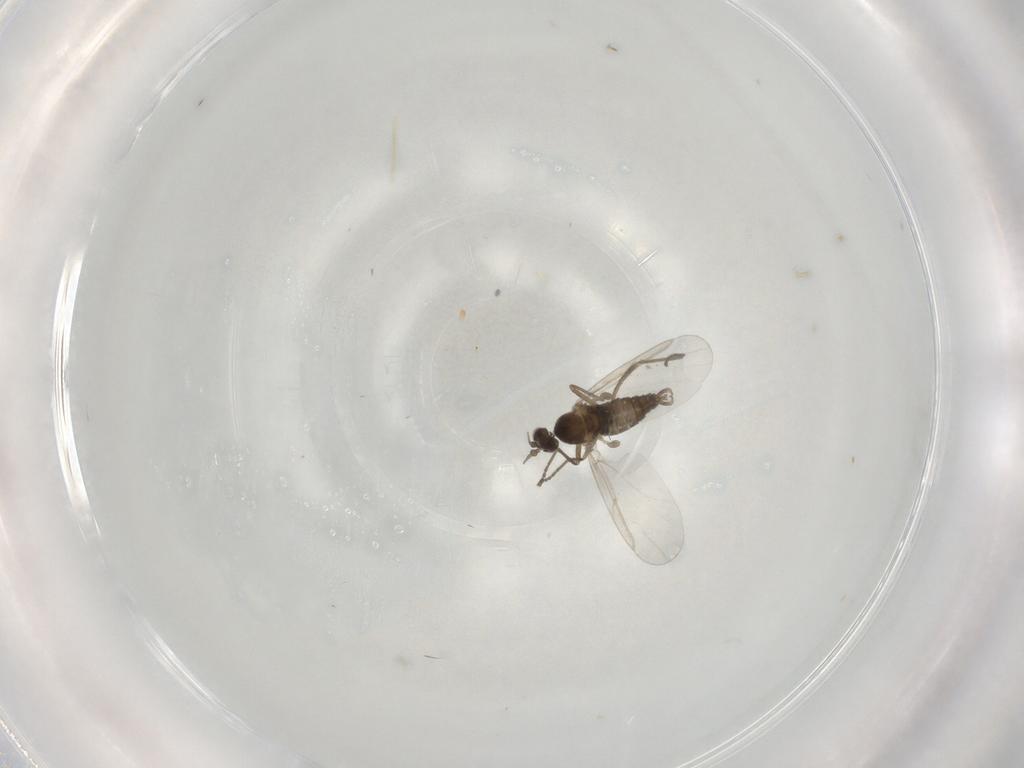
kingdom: Animalia
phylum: Arthropoda
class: Insecta
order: Diptera
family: Cecidomyiidae
